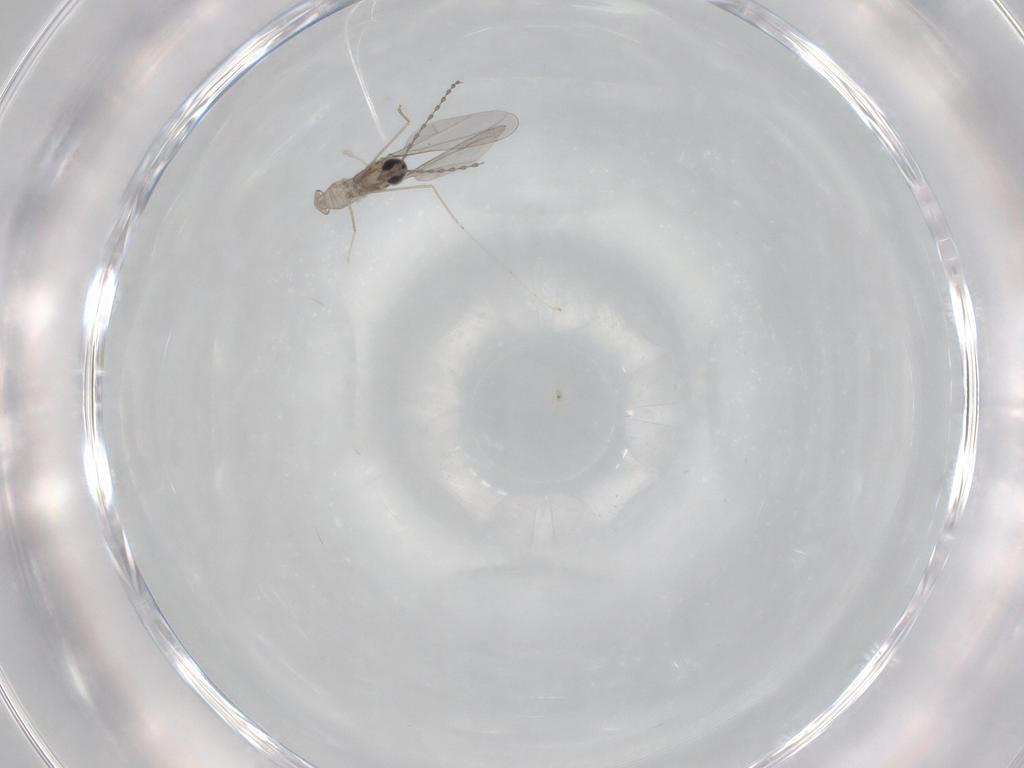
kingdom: Animalia
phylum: Arthropoda
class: Insecta
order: Diptera
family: Cecidomyiidae
